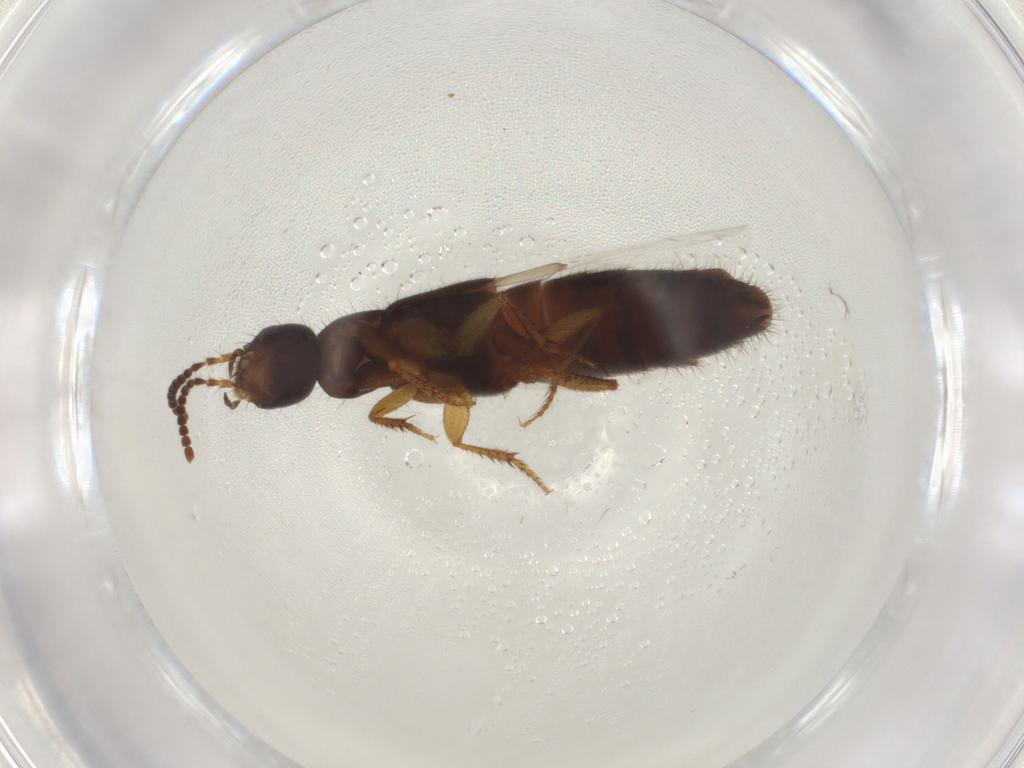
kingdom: Animalia
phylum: Arthropoda
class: Insecta
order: Coleoptera
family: Staphylinidae
